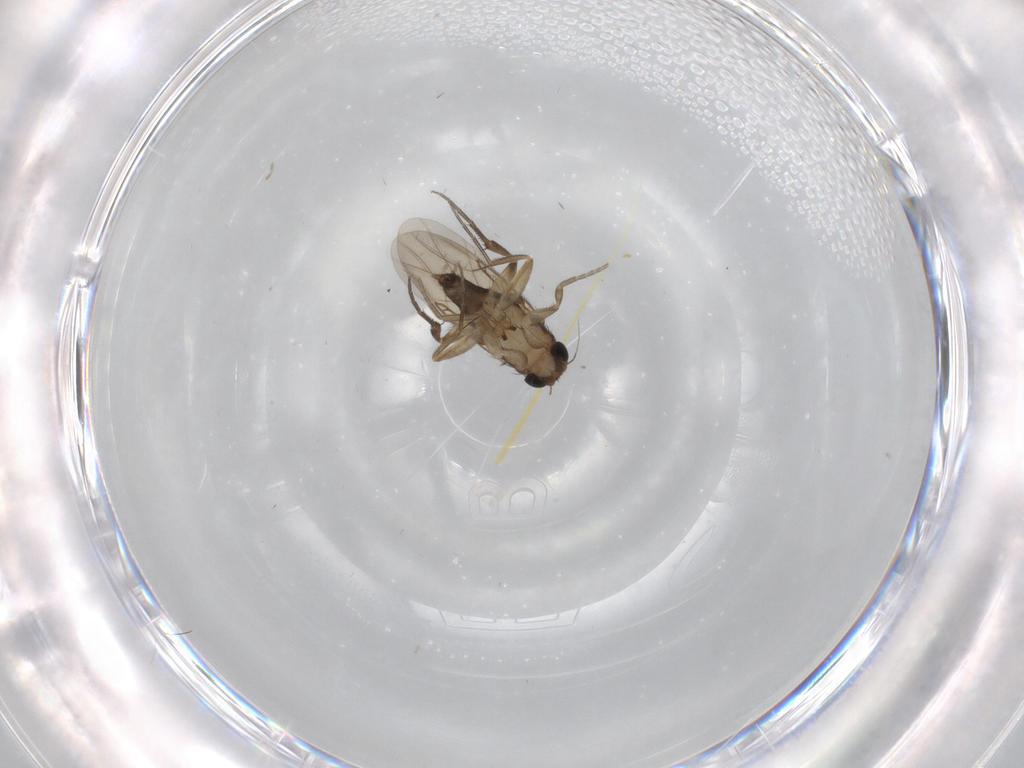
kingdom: Animalia
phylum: Arthropoda
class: Insecta
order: Diptera
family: Phoridae
